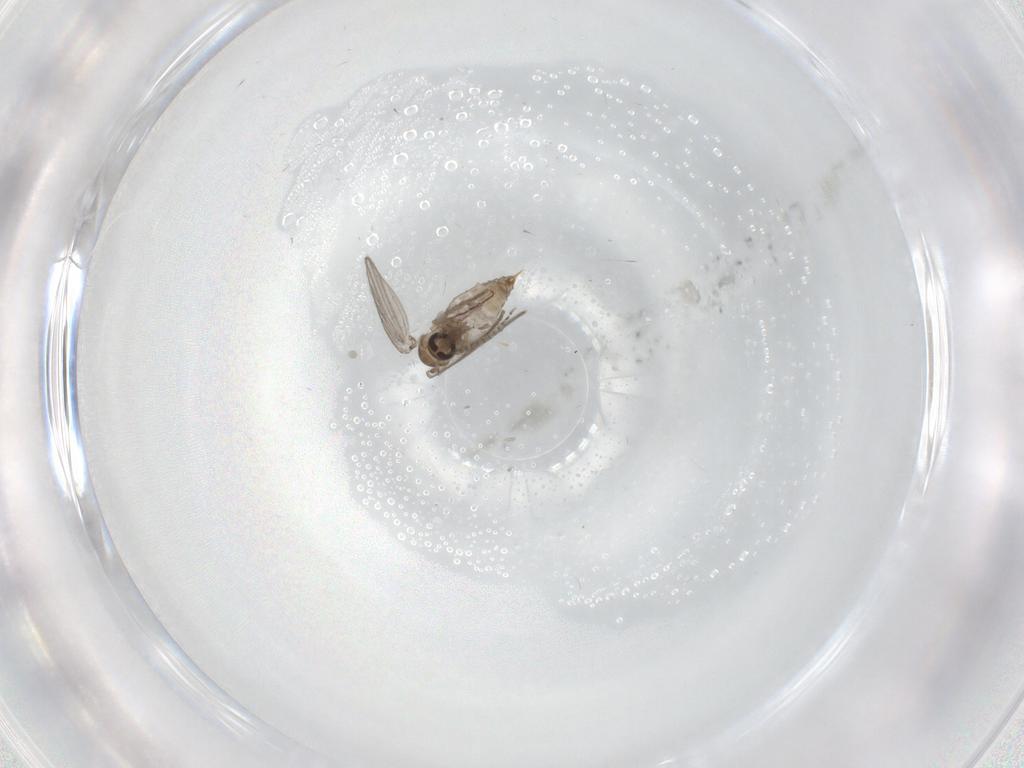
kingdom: Animalia
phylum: Arthropoda
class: Insecta
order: Diptera
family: Psychodidae
